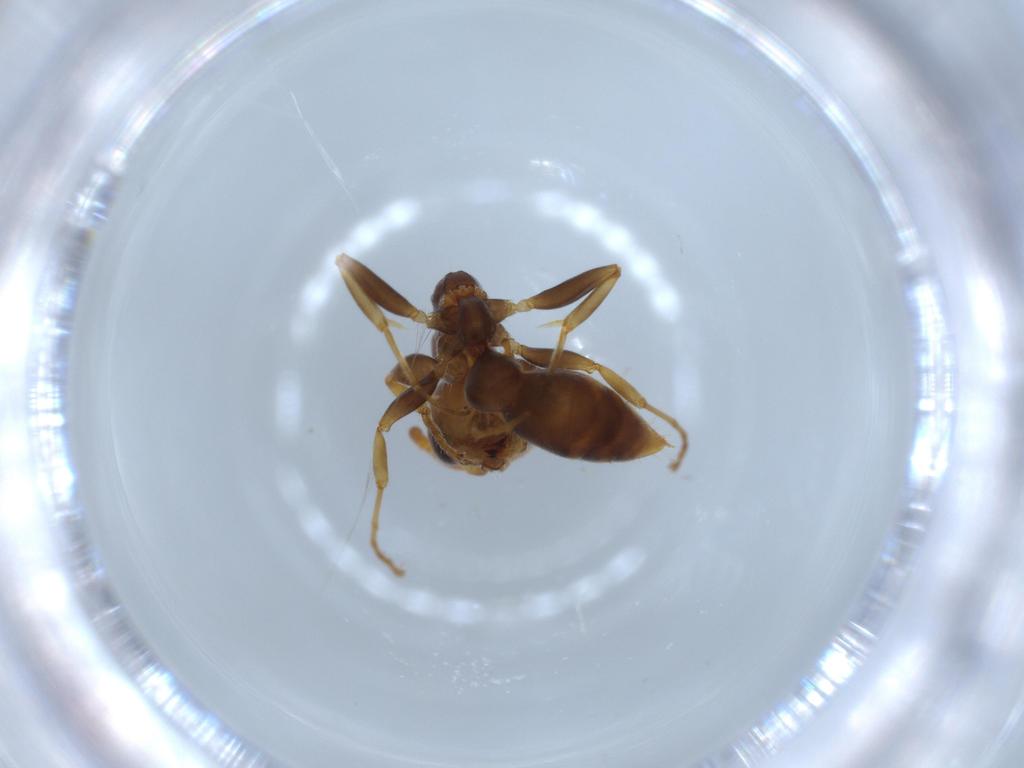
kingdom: Animalia
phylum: Arthropoda
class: Insecta
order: Hymenoptera
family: Formicidae
